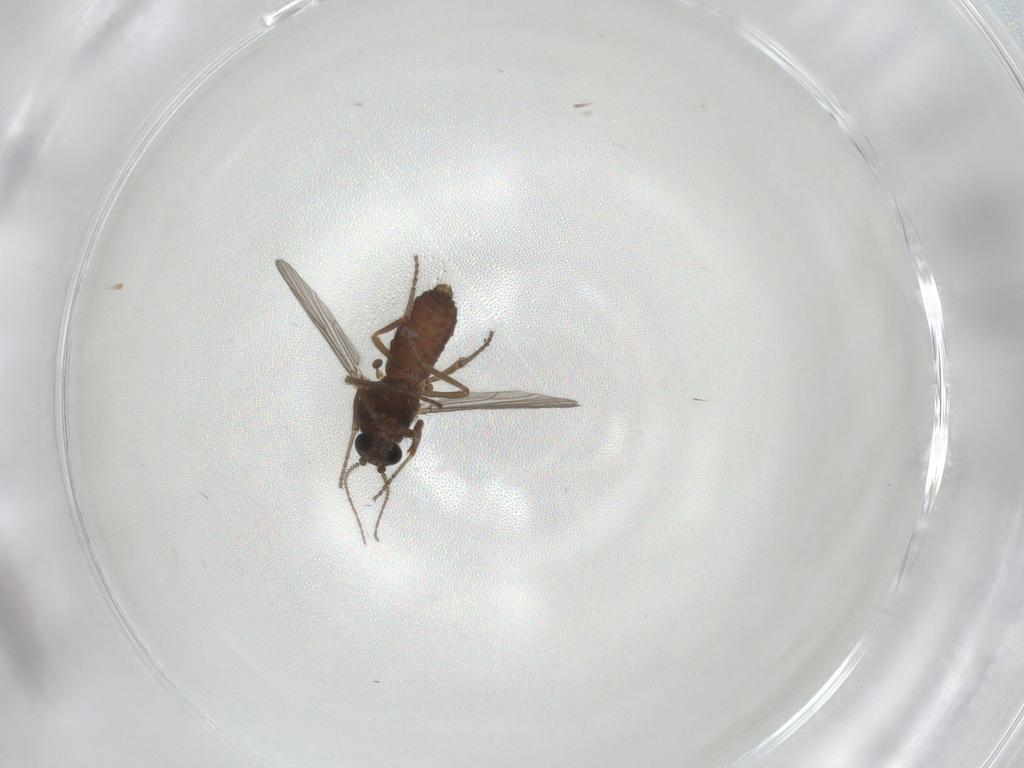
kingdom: Animalia
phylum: Arthropoda
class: Insecta
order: Diptera
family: Ceratopogonidae
